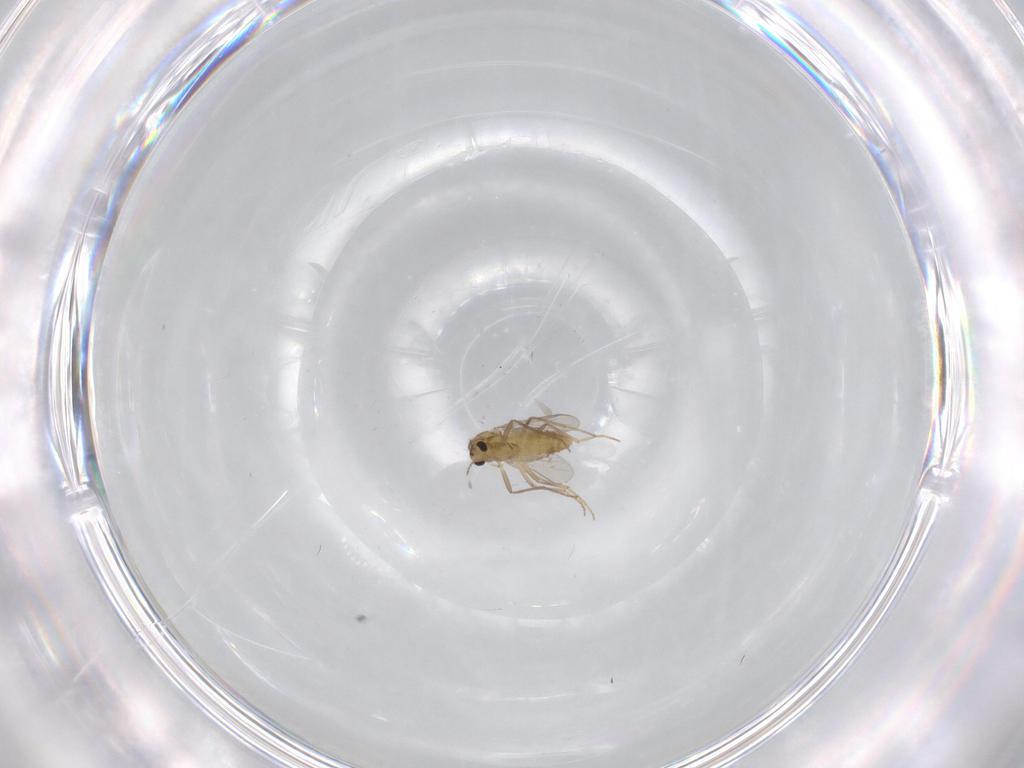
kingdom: Animalia
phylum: Arthropoda
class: Insecta
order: Diptera
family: Chironomidae
